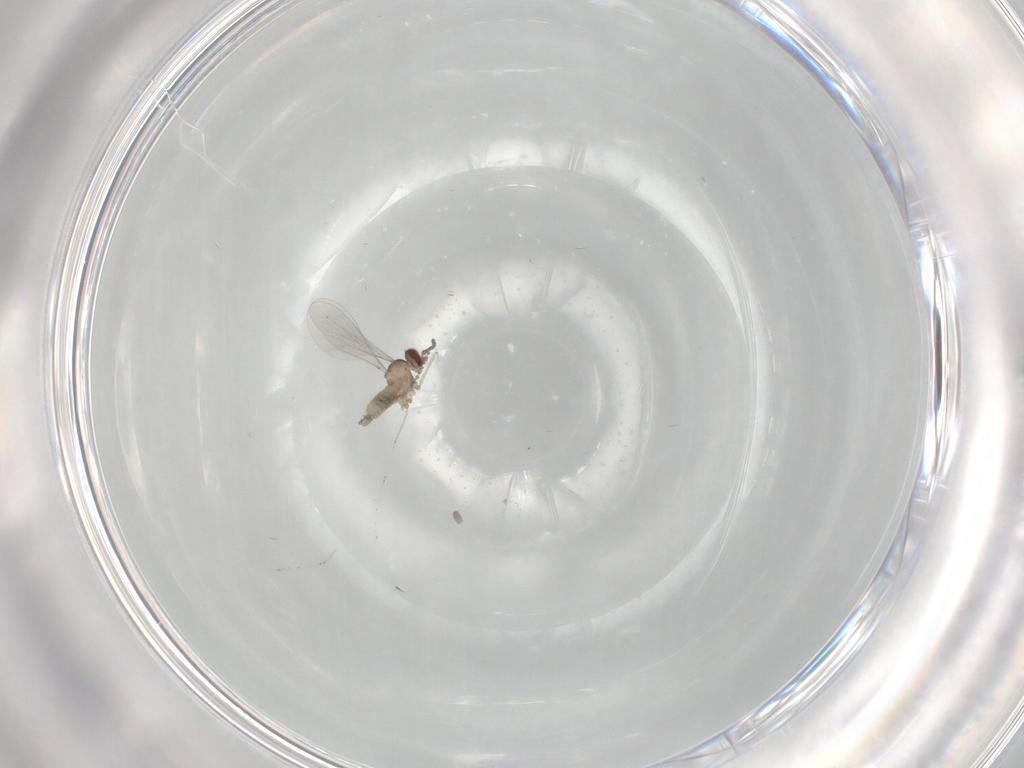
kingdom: Animalia
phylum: Arthropoda
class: Insecta
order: Diptera
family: Cecidomyiidae
